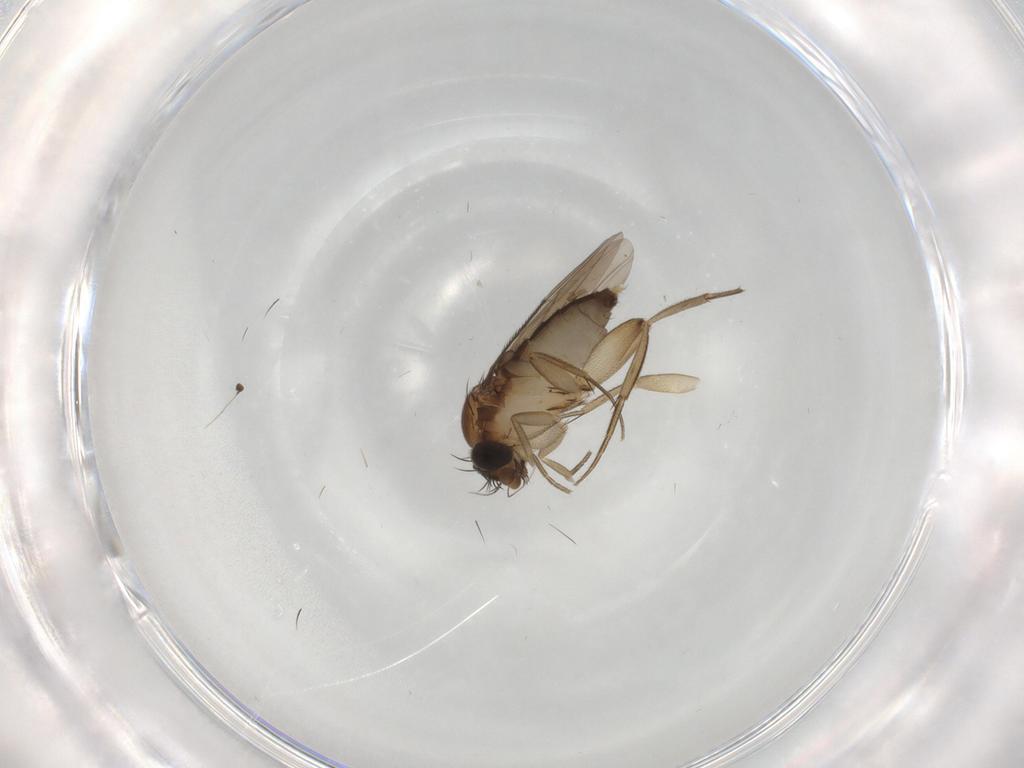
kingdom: Animalia
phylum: Arthropoda
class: Insecta
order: Diptera
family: Phoridae
